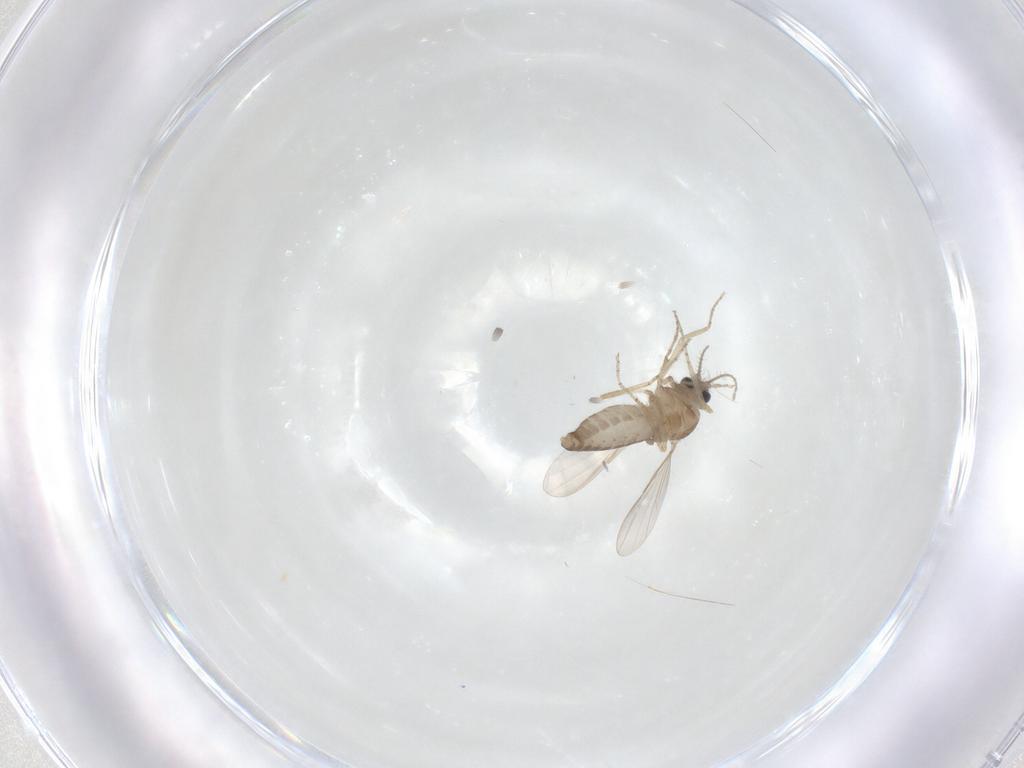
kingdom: Animalia
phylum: Arthropoda
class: Insecta
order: Diptera
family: Ceratopogonidae
